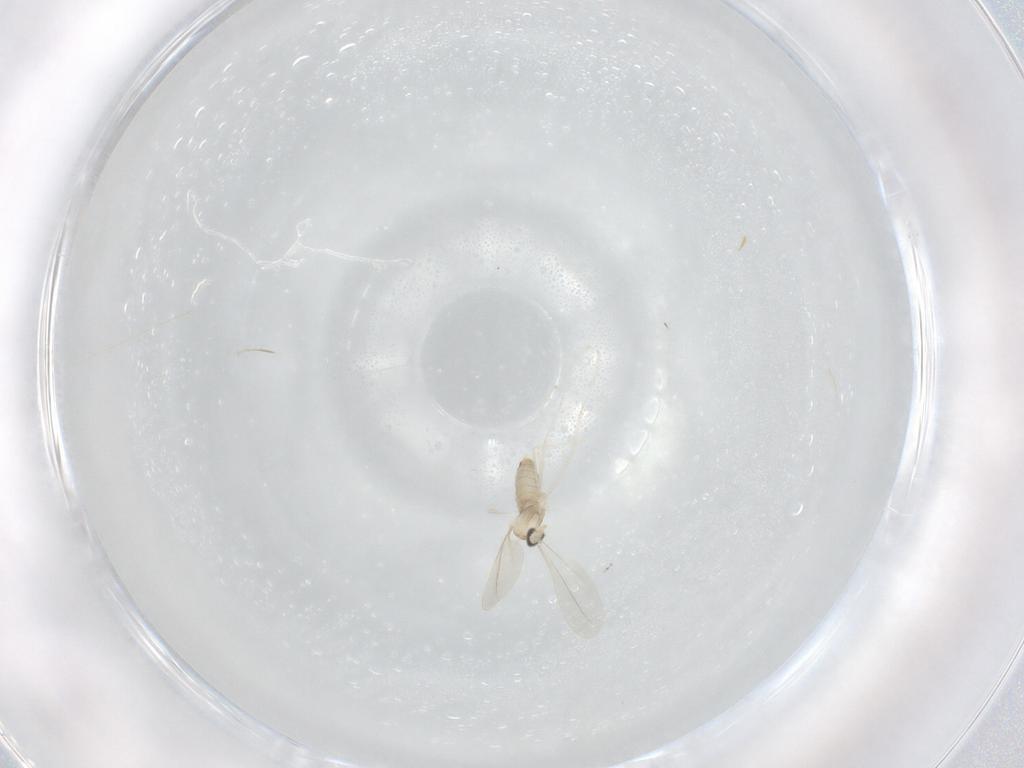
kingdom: Animalia
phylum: Arthropoda
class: Insecta
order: Diptera
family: Cecidomyiidae
